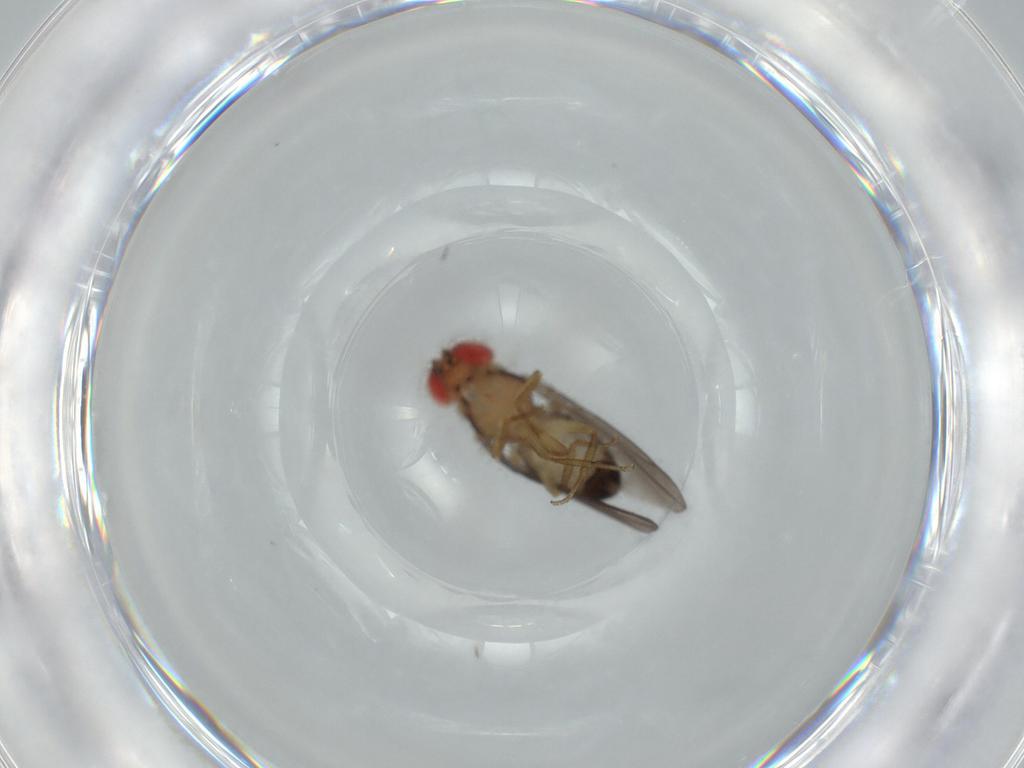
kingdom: Animalia
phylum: Arthropoda
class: Insecta
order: Diptera
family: Drosophilidae
